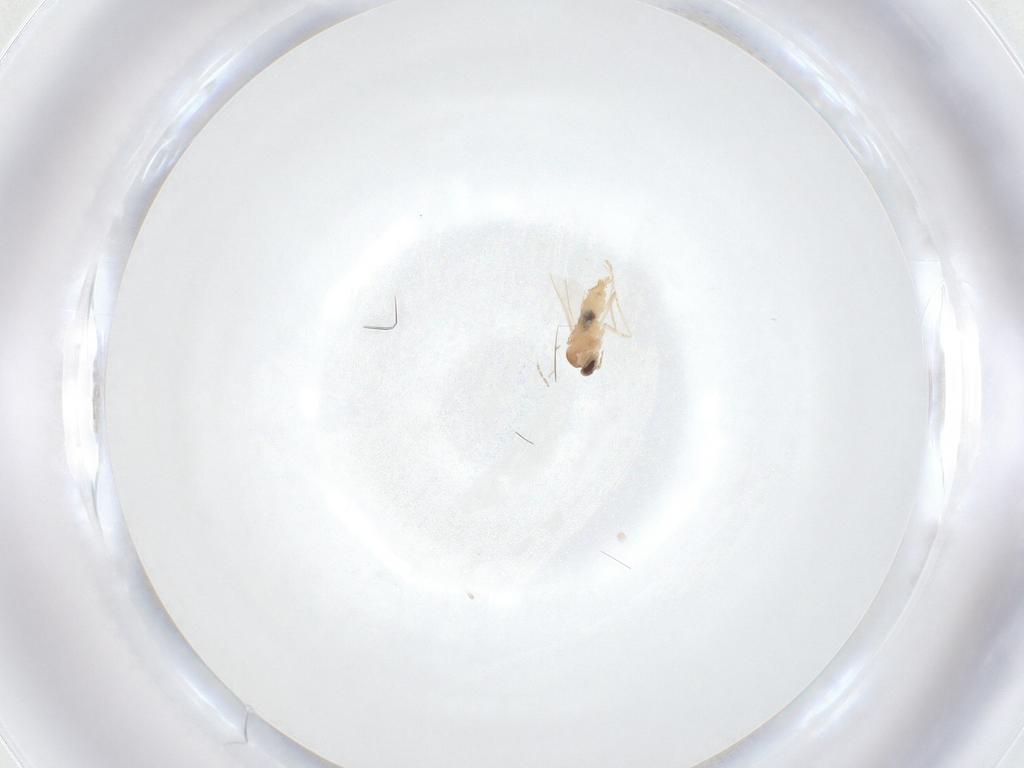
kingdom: Animalia
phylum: Arthropoda
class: Insecta
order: Diptera
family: Cecidomyiidae
